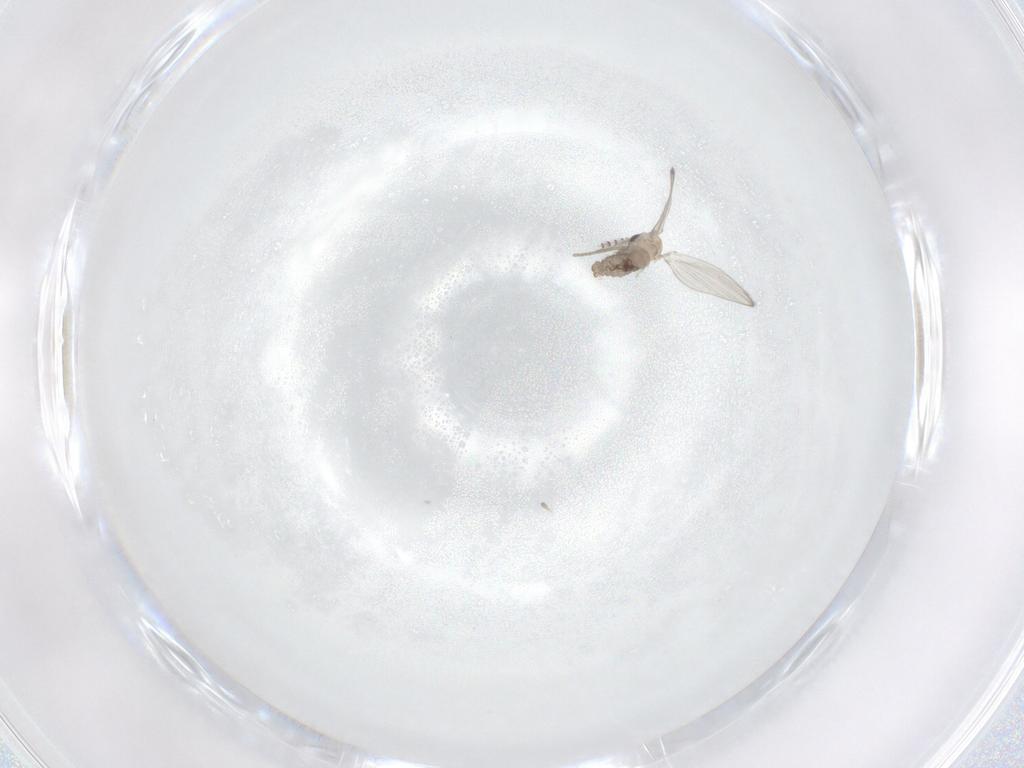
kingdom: Animalia
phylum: Arthropoda
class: Insecta
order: Diptera
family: Psychodidae
